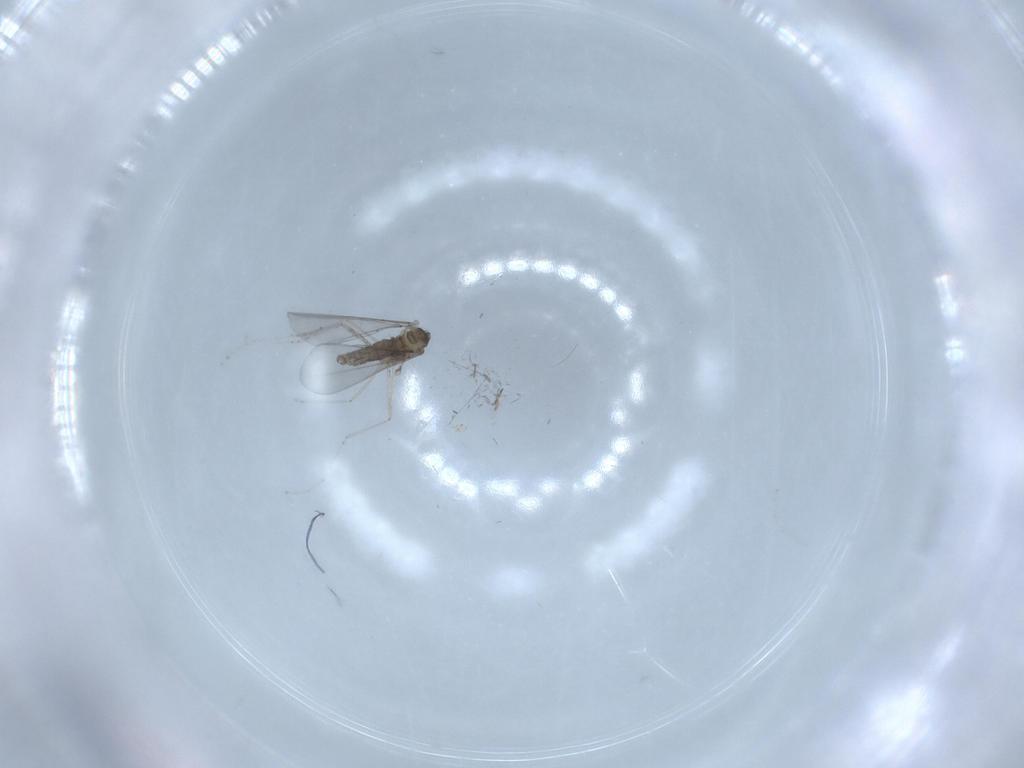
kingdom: Animalia
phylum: Arthropoda
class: Insecta
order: Diptera
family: Cecidomyiidae
